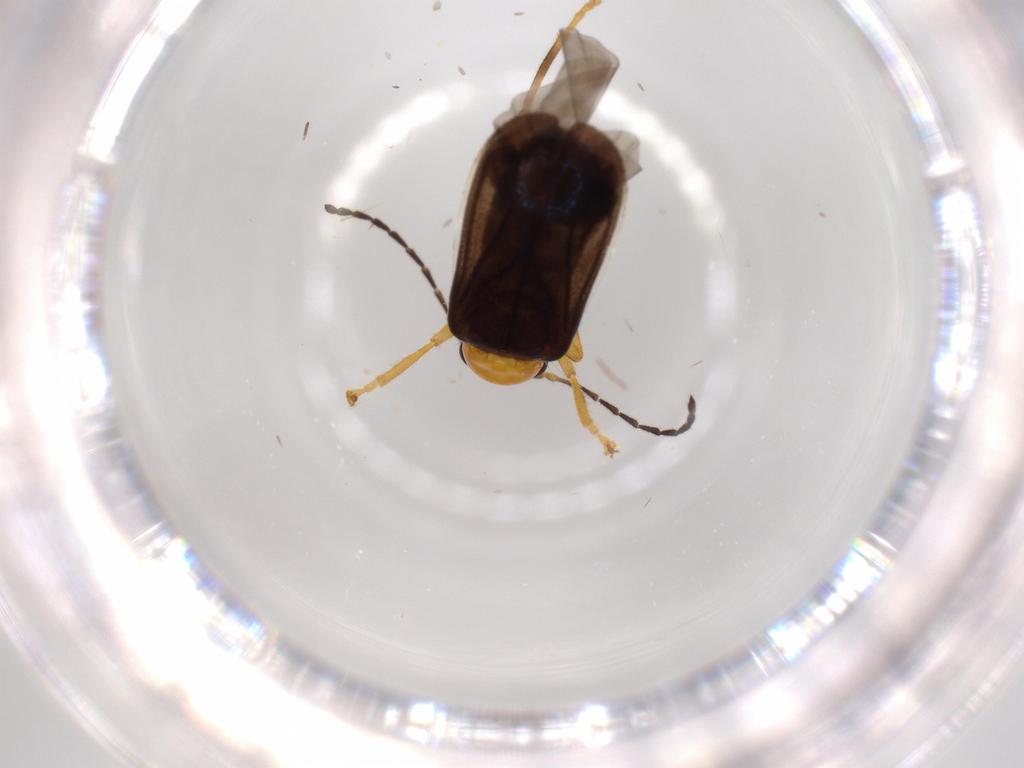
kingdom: Animalia
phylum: Arthropoda
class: Insecta
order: Coleoptera
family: Chrysomelidae
